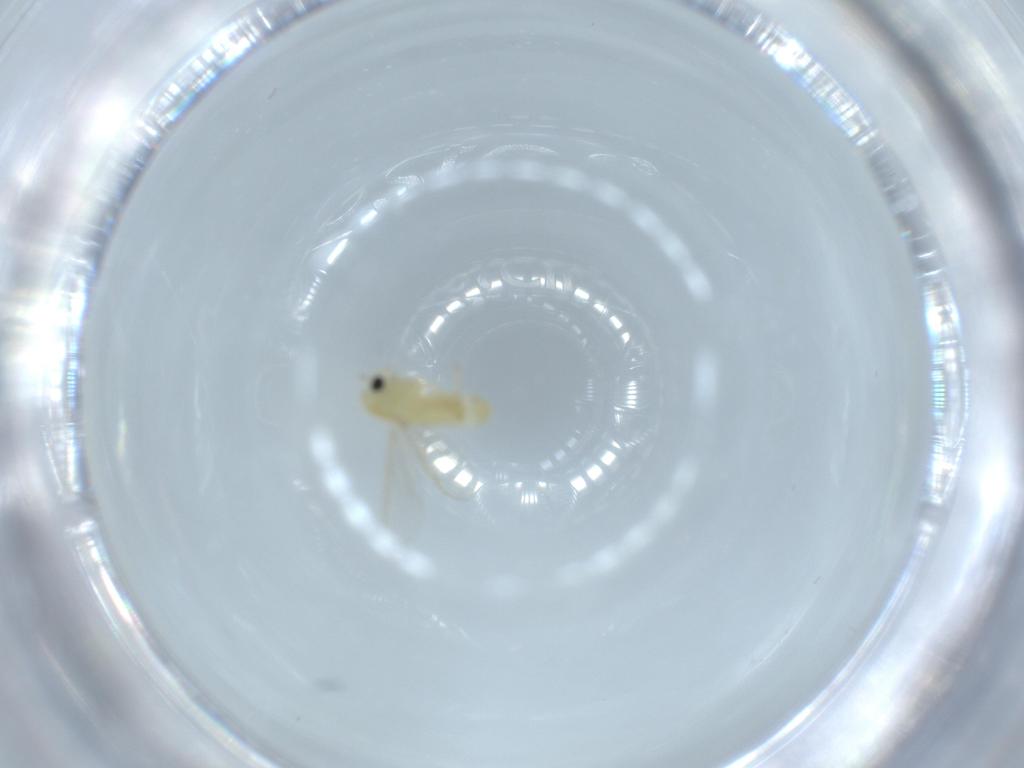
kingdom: Animalia
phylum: Arthropoda
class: Insecta
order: Diptera
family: Chironomidae
